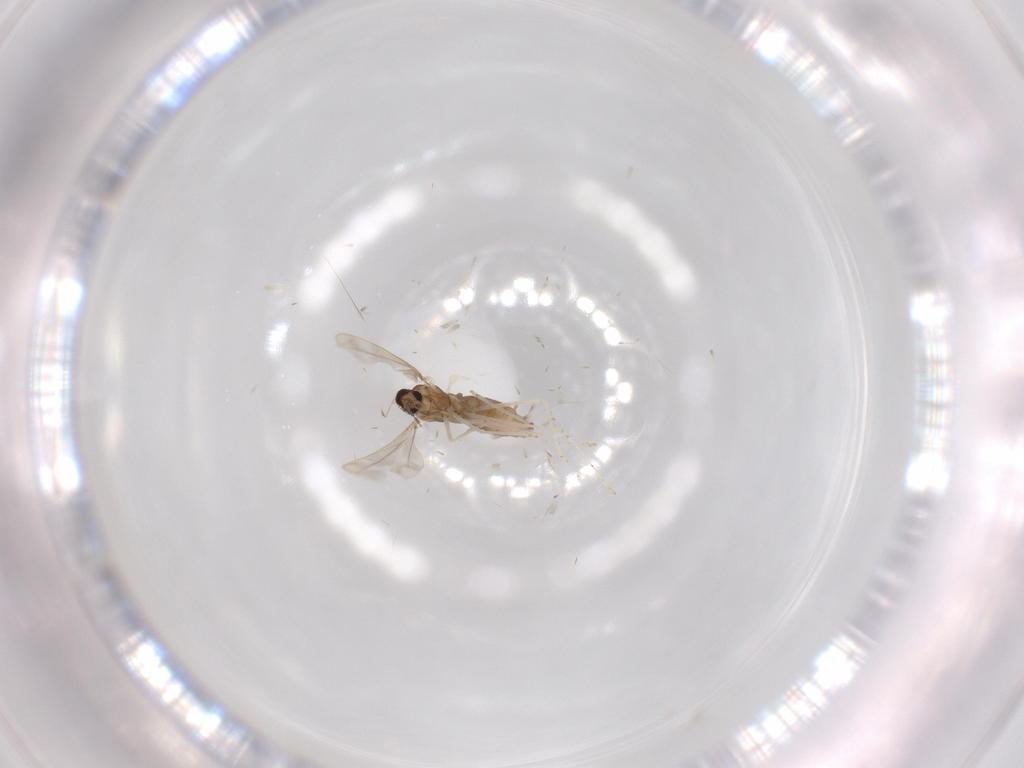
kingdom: Animalia
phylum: Arthropoda
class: Insecta
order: Diptera
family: Cecidomyiidae
